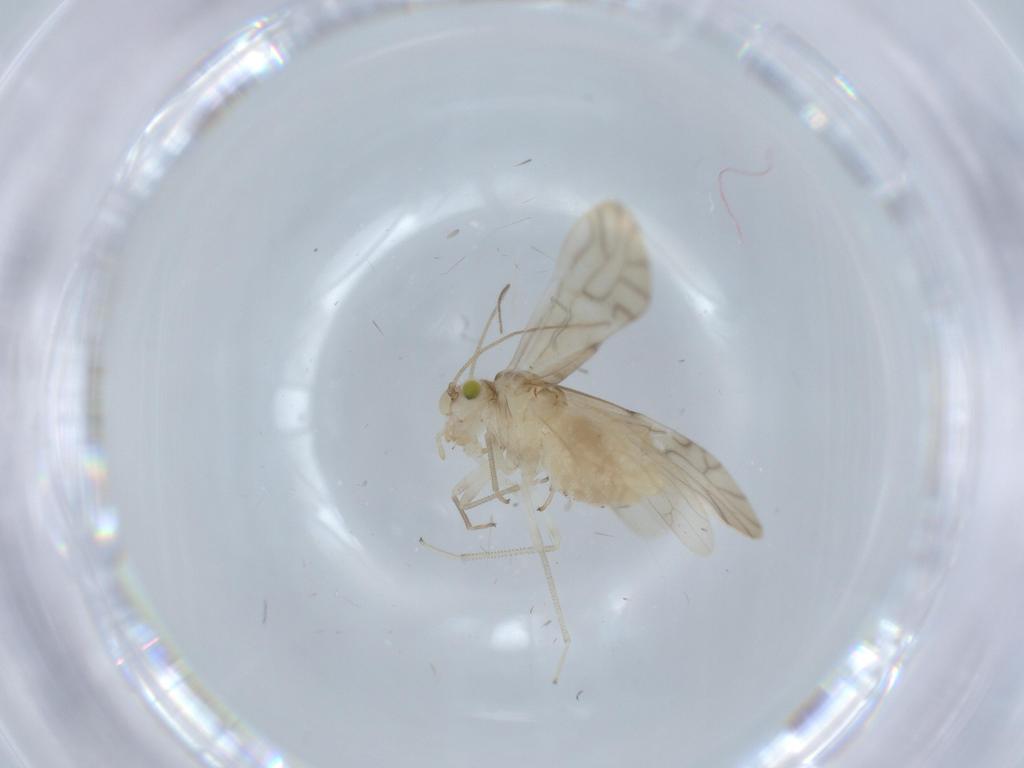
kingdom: Animalia
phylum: Arthropoda
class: Insecta
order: Psocodea
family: Caeciliusidae
